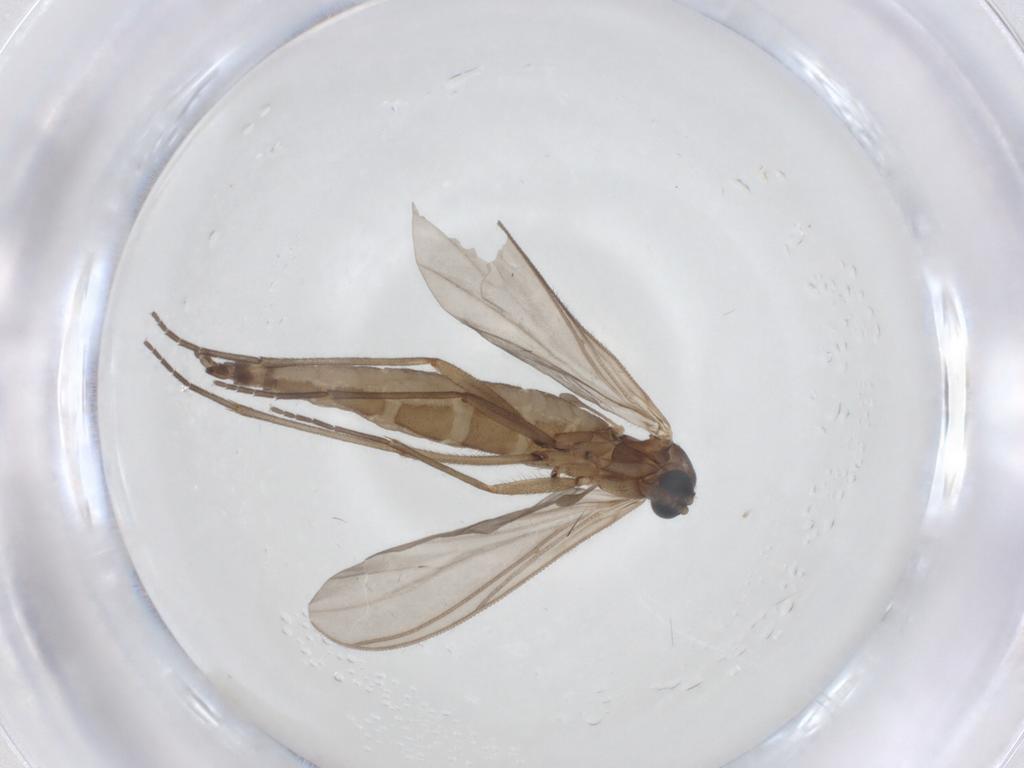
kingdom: Animalia
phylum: Arthropoda
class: Insecta
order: Diptera
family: Sciaridae
